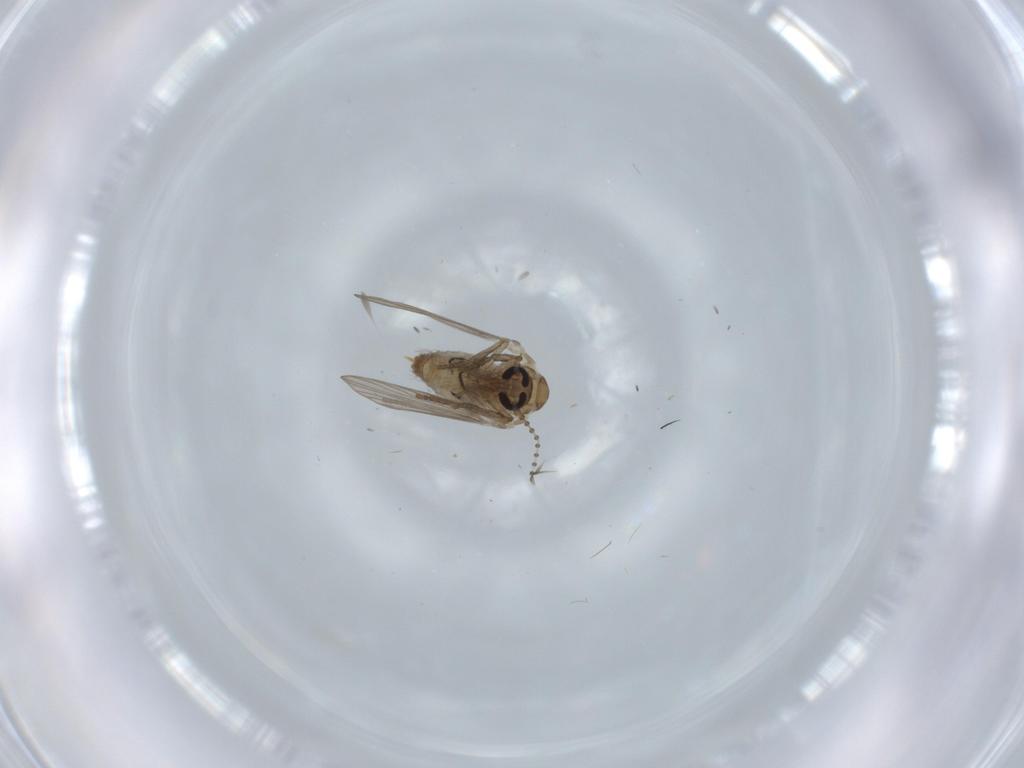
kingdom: Animalia
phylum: Arthropoda
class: Insecta
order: Diptera
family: Psychodidae
